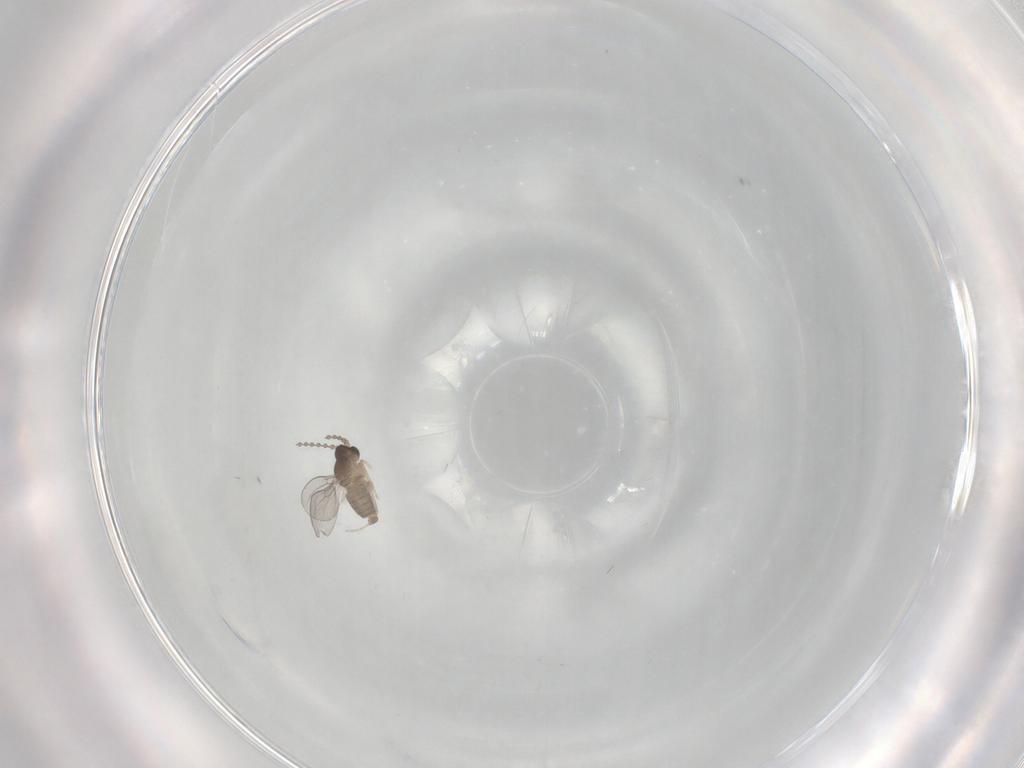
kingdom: Animalia
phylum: Arthropoda
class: Insecta
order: Diptera
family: Cecidomyiidae
